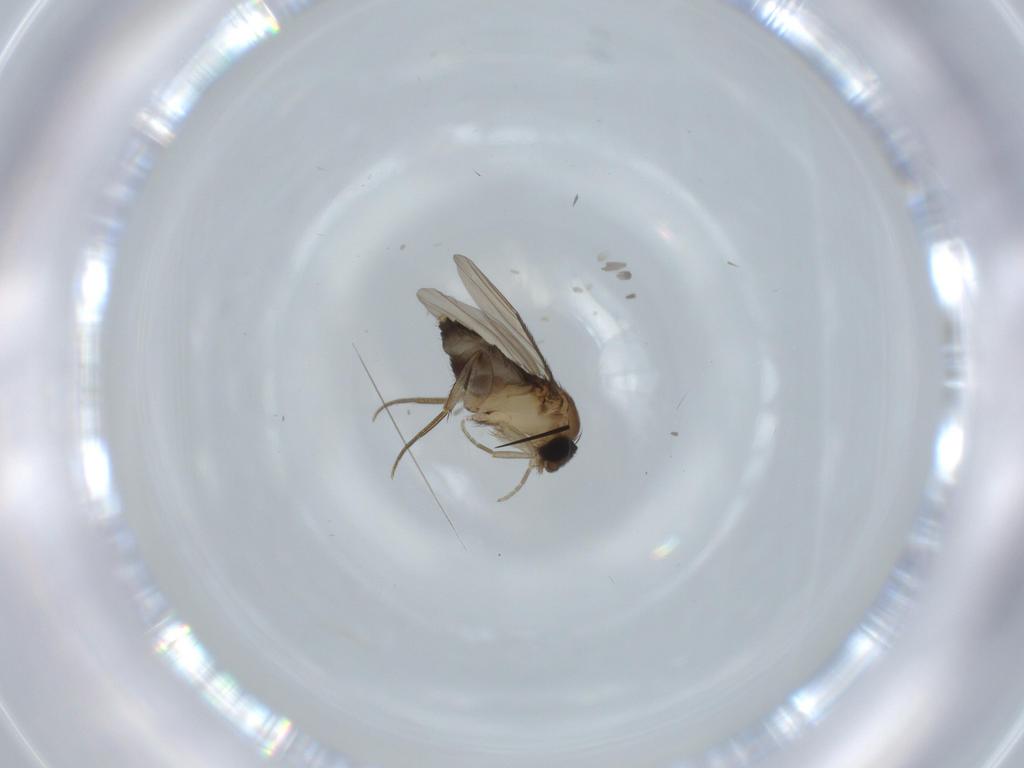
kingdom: Animalia
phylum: Arthropoda
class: Insecta
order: Diptera
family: Phoridae
